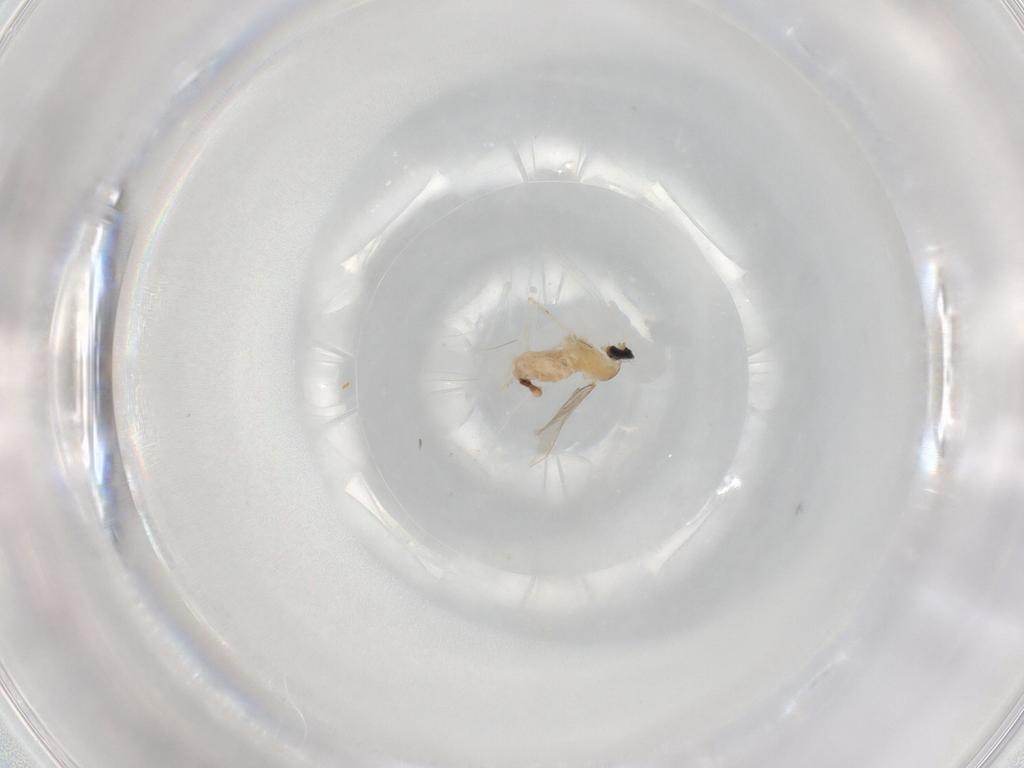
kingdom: Animalia
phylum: Arthropoda
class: Insecta
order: Diptera
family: Cecidomyiidae
